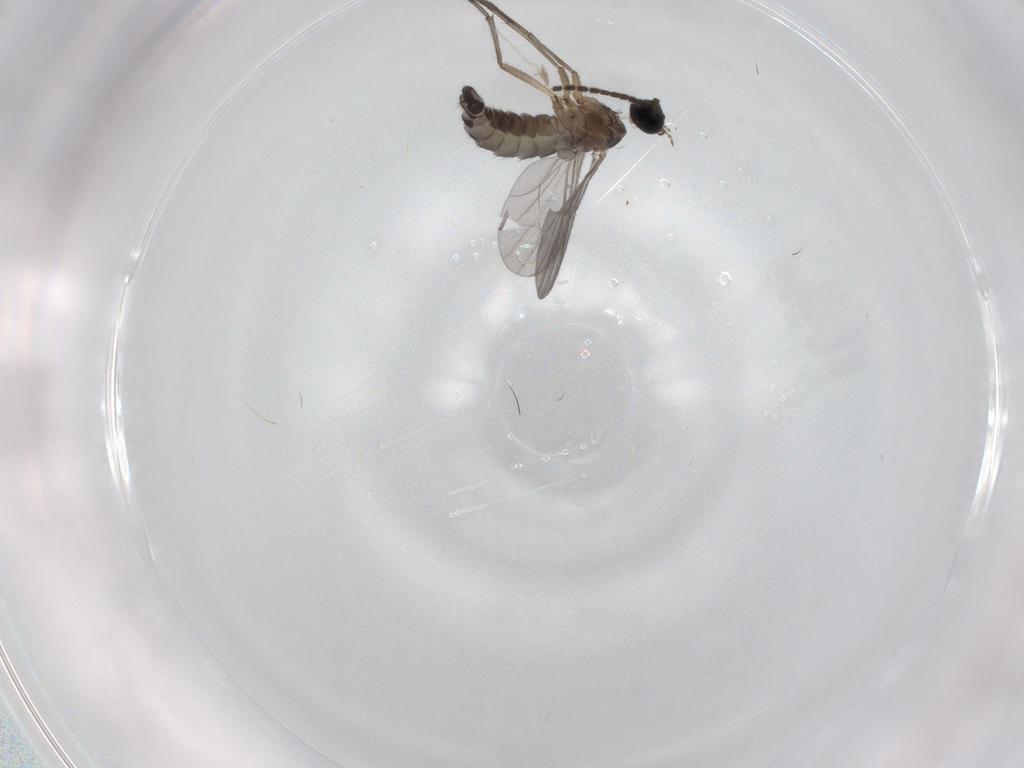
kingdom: Animalia
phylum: Arthropoda
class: Insecta
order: Diptera
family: Sciaridae
